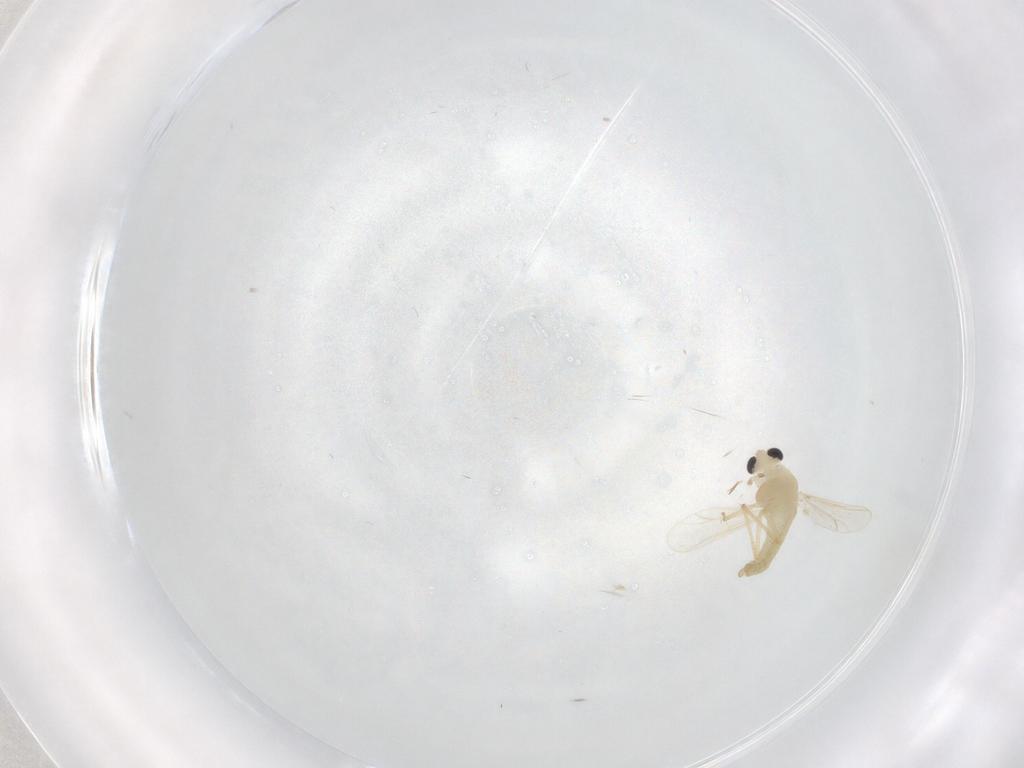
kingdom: Animalia
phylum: Arthropoda
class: Insecta
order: Diptera
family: Chironomidae
